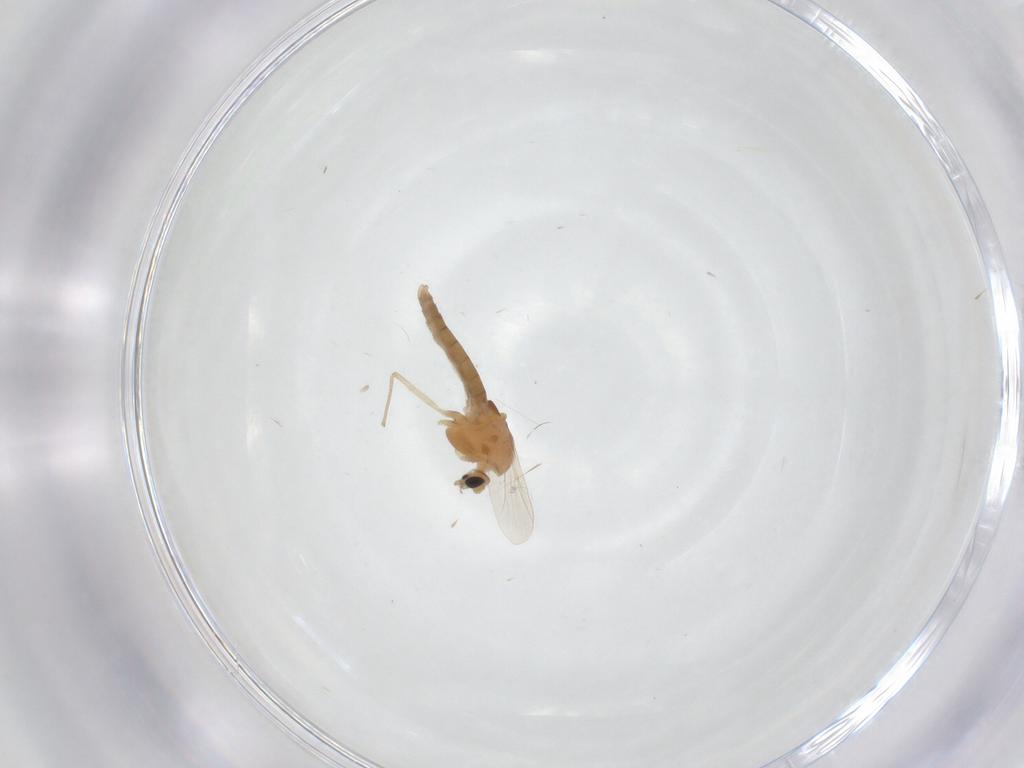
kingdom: Animalia
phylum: Arthropoda
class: Insecta
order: Diptera
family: Chironomidae
